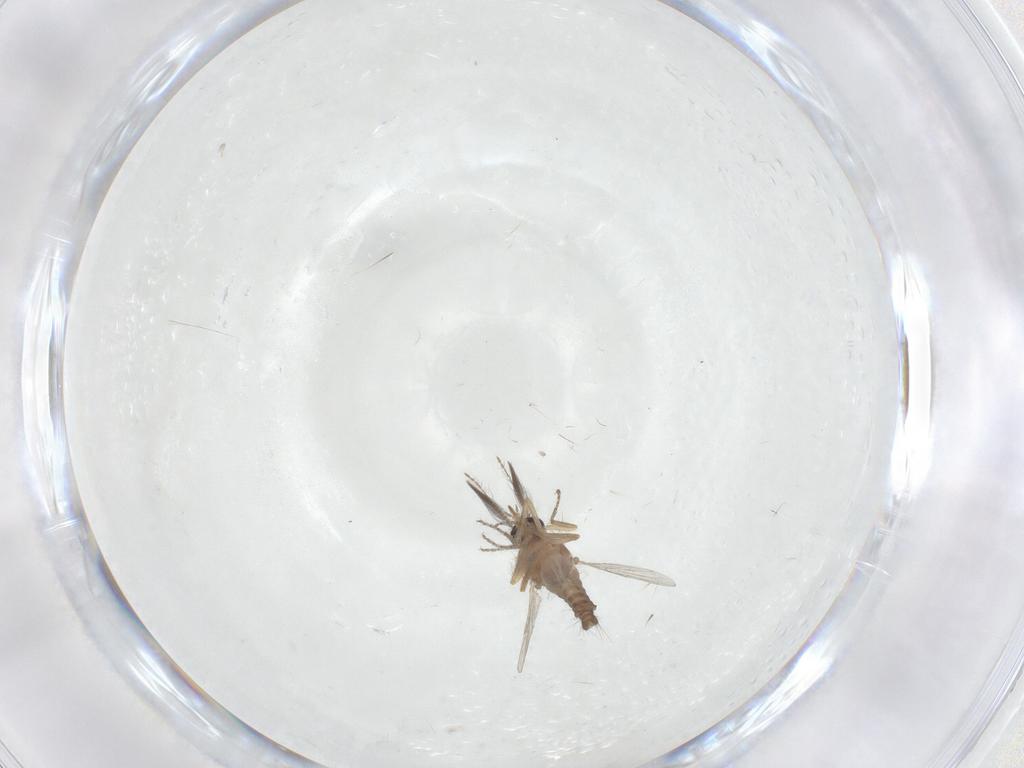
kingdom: Animalia
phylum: Arthropoda
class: Insecta
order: Diptera
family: Ceratopogonidae
